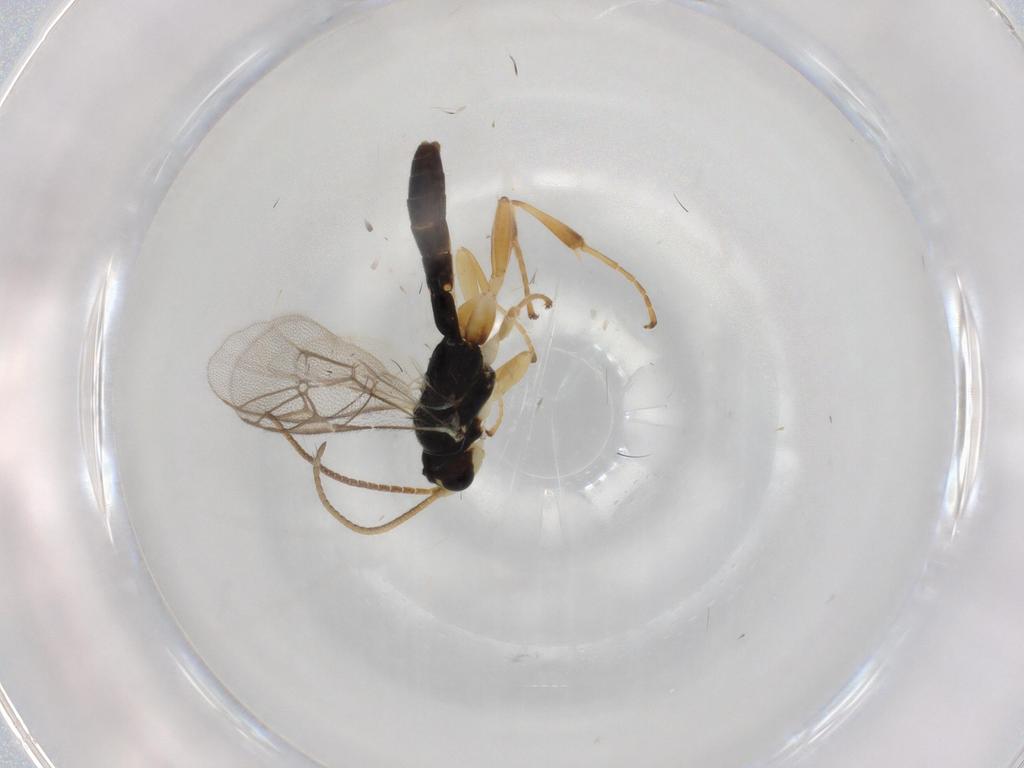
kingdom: Animalia
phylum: Arthropoda
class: Insecta
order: Hymenoptera
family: Ichneumonidae
